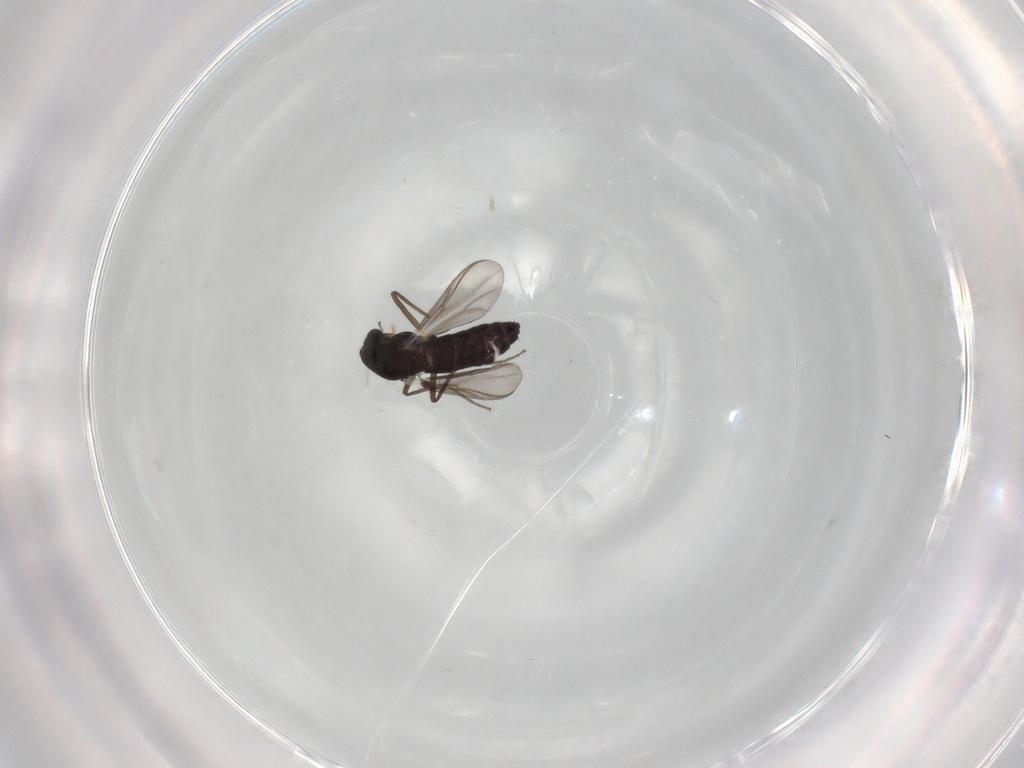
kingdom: Animalia
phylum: Arthropoda
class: Insecta
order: Diptera
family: Chironomidae
